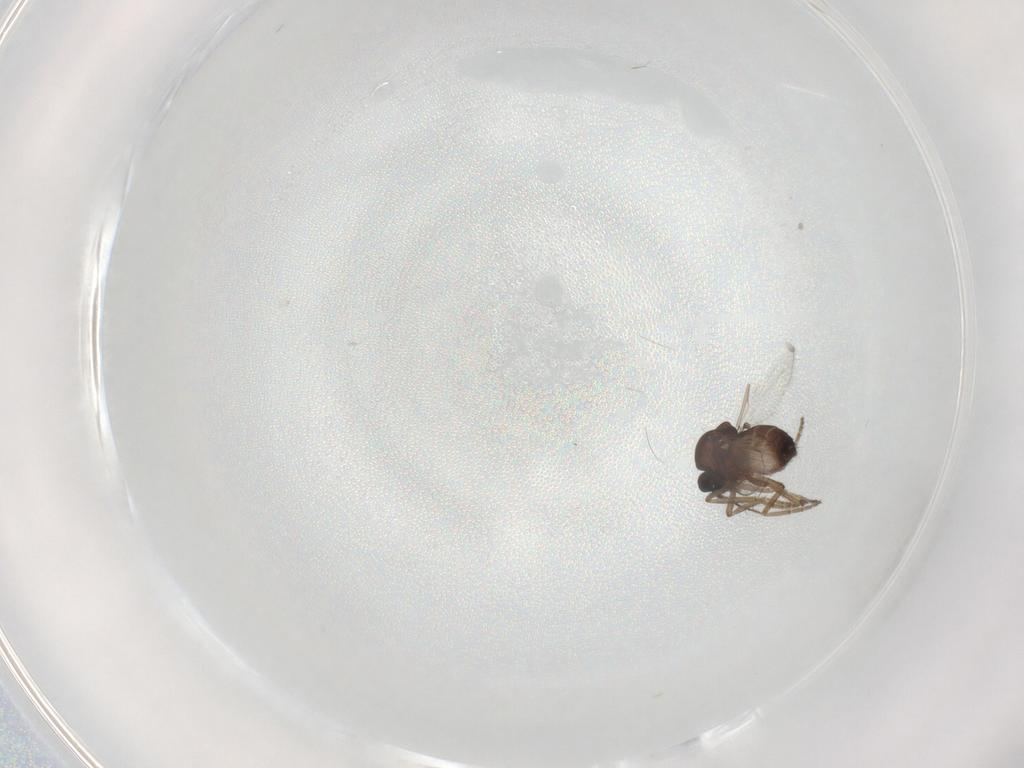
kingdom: Animalia
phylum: Arthropoda
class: Insecta
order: Diptera
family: Ceratopogonidae
